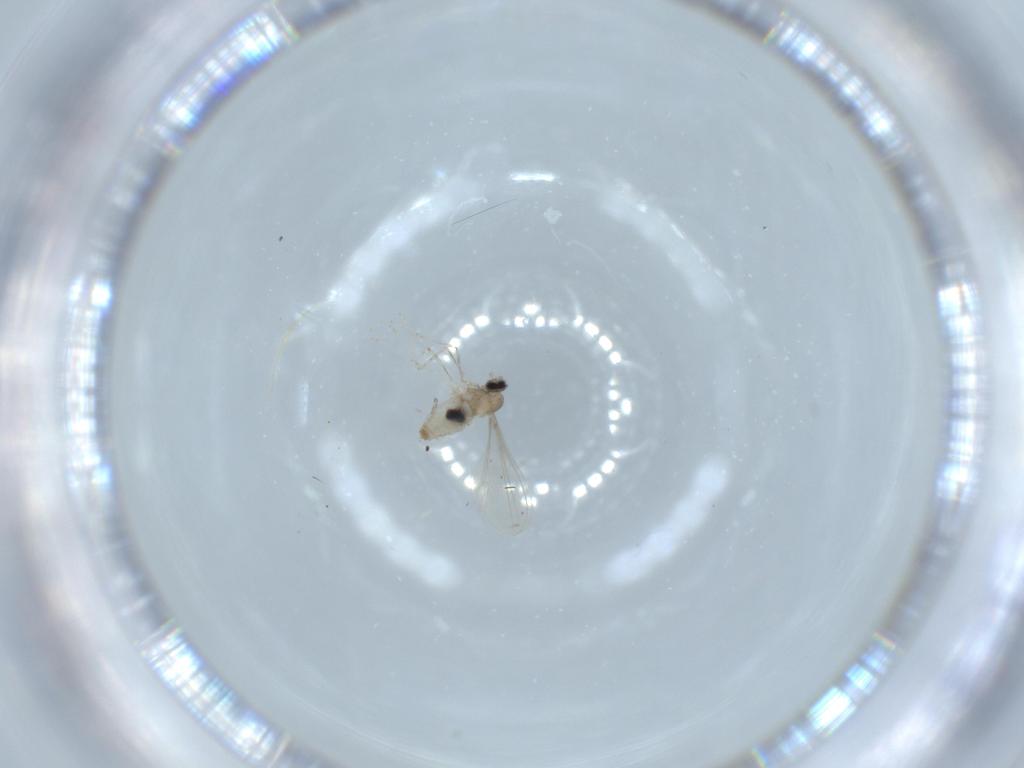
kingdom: Animalia
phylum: Arthropoda
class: Insecta
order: Diptera
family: Cecidomyiidae
